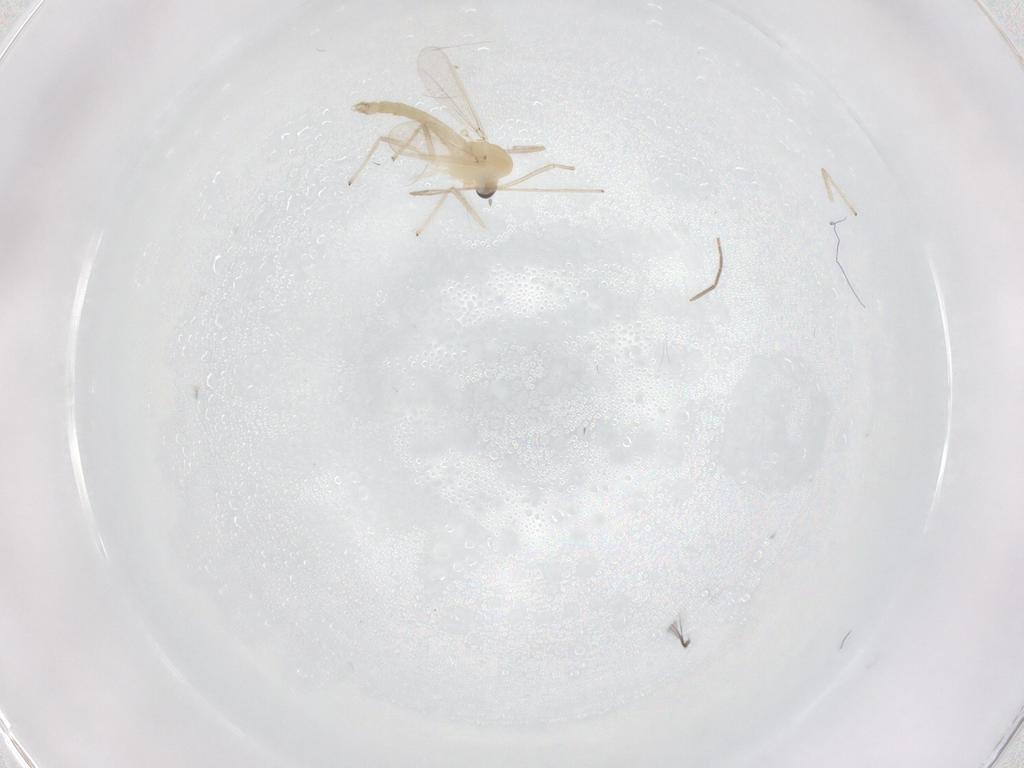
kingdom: Animalia
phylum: Arthropoda
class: Insecta
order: Diptera
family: Chironomidae
